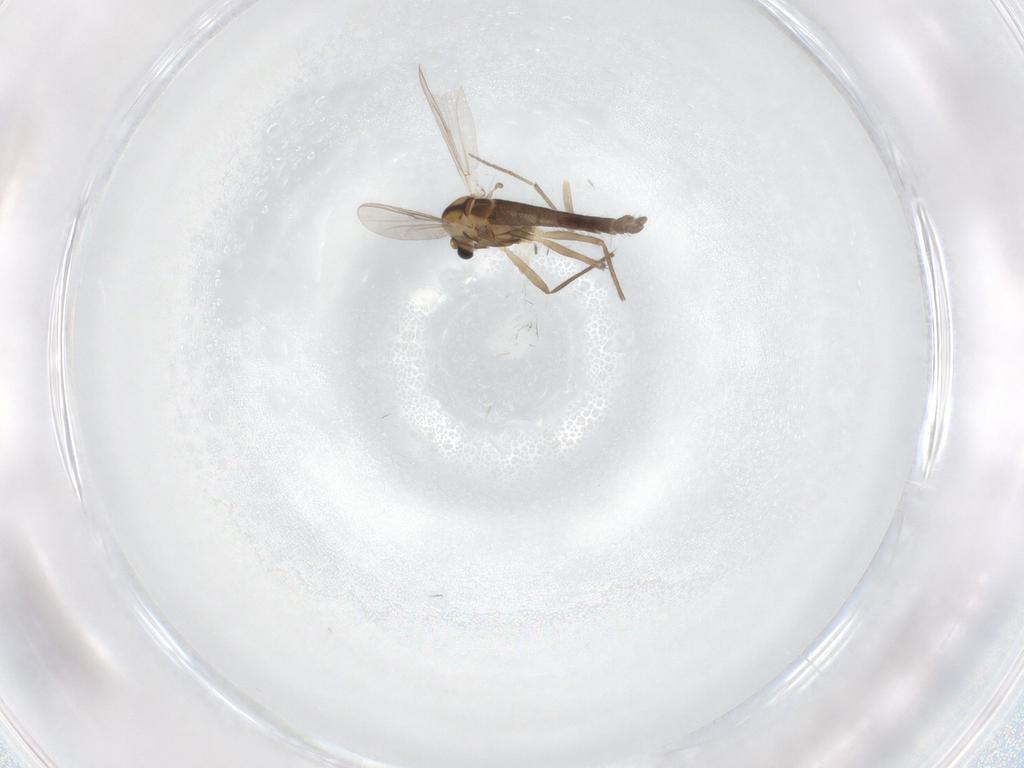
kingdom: Animalia
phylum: Arthropoda
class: Insecta
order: Diptera
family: Chironomidae
